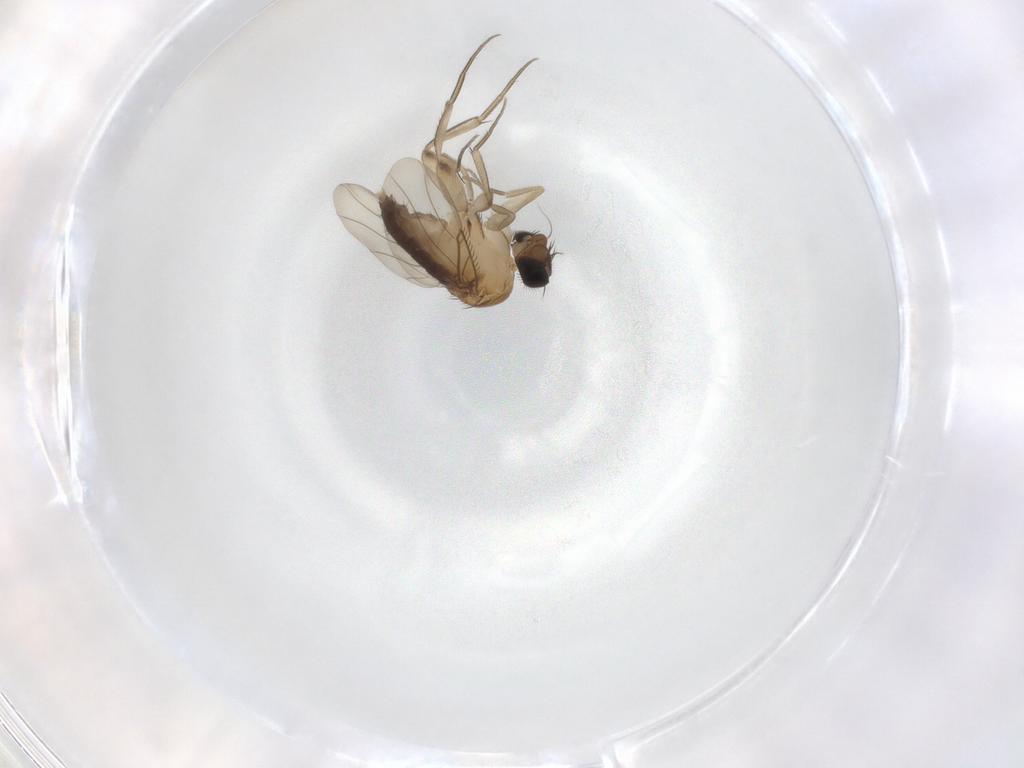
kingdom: Animalia
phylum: Arthropoda
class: Insecta
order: Diptera
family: Phoridae
